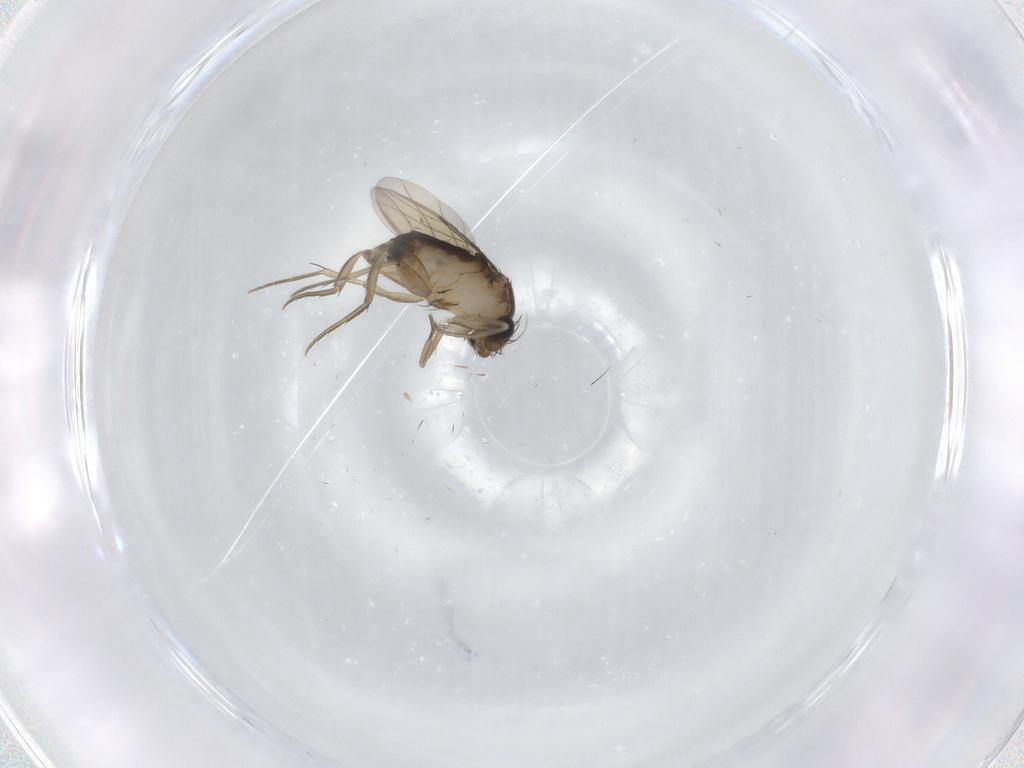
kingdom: Animalia
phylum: Arthropoda
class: Insecta
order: Diptera
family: Phoridae
